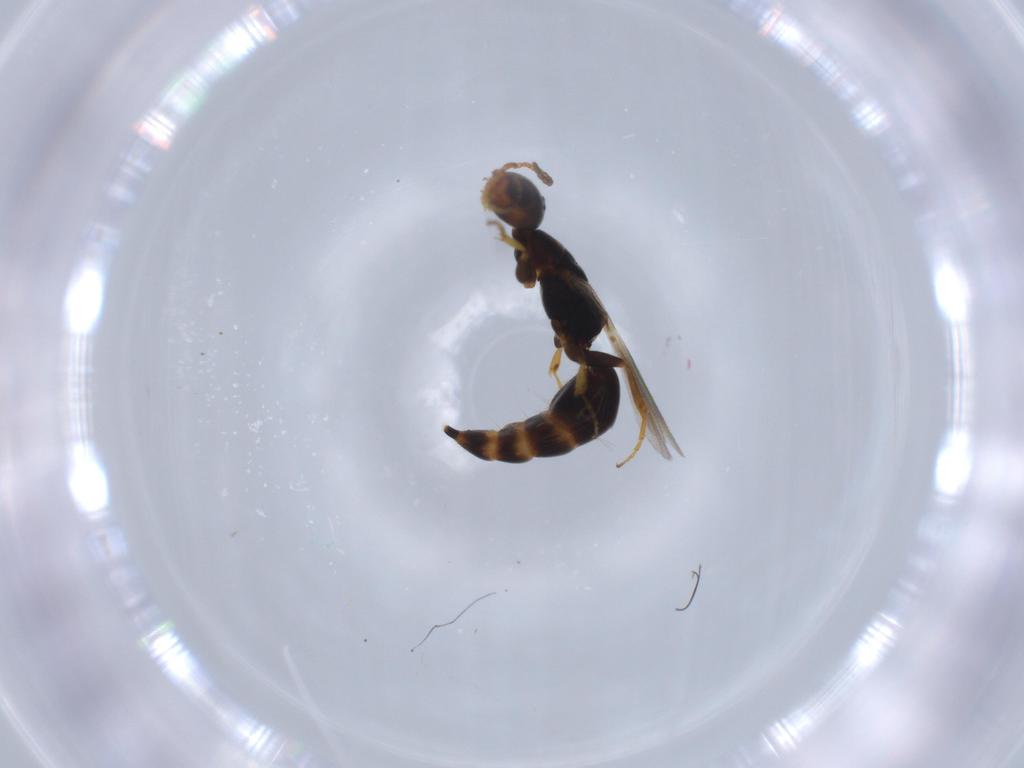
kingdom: Animalia
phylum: Arthropoda
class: Insecta
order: Hymenoptera
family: Bethylidae
